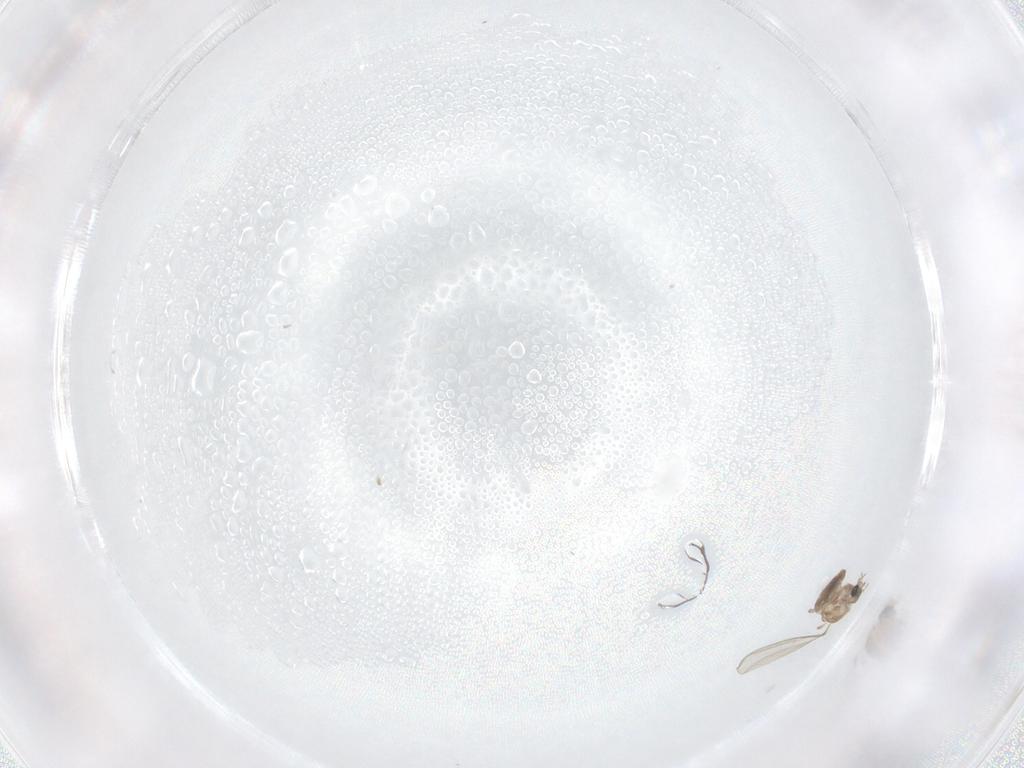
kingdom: Animalia
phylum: Arthropoda
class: Insecta
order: Diptera
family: Chironomidae
